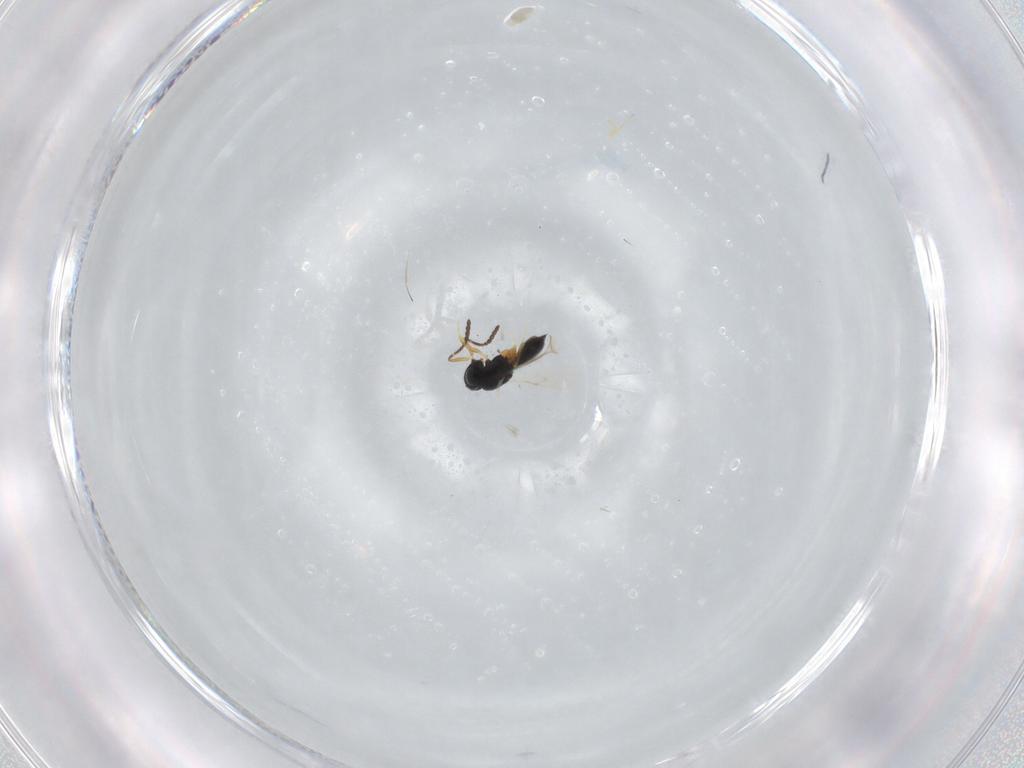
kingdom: Animalia
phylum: Arthropoda
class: Insecta
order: Hymenoptera
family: Scelionidae
